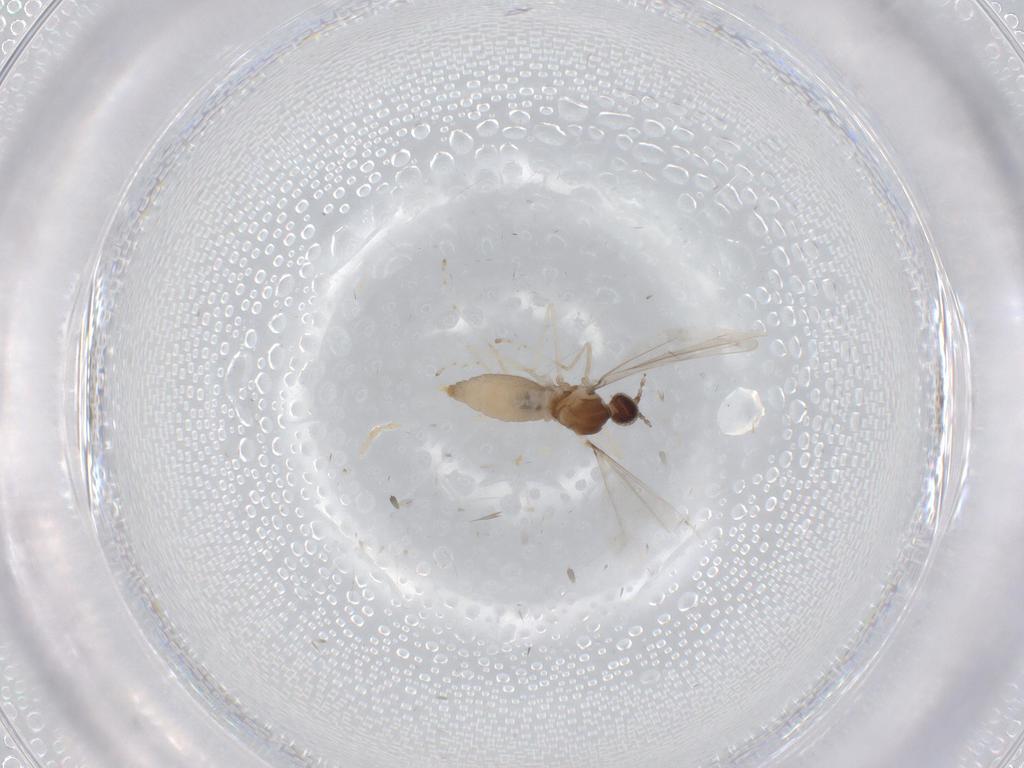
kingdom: Animalia
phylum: Arthropoda
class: Insecta
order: Diptera
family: Cecidomyiidae
